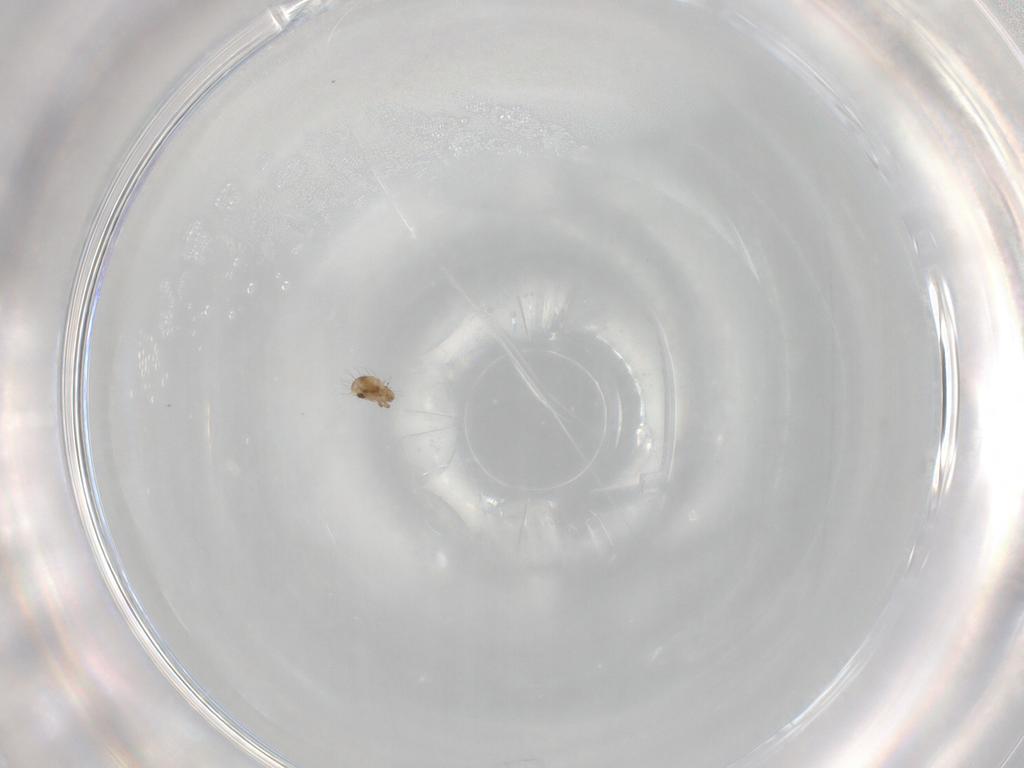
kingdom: Animalia
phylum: Arthropoda
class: Arachnida
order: Sarcoptiformes
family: Humerobatidae
